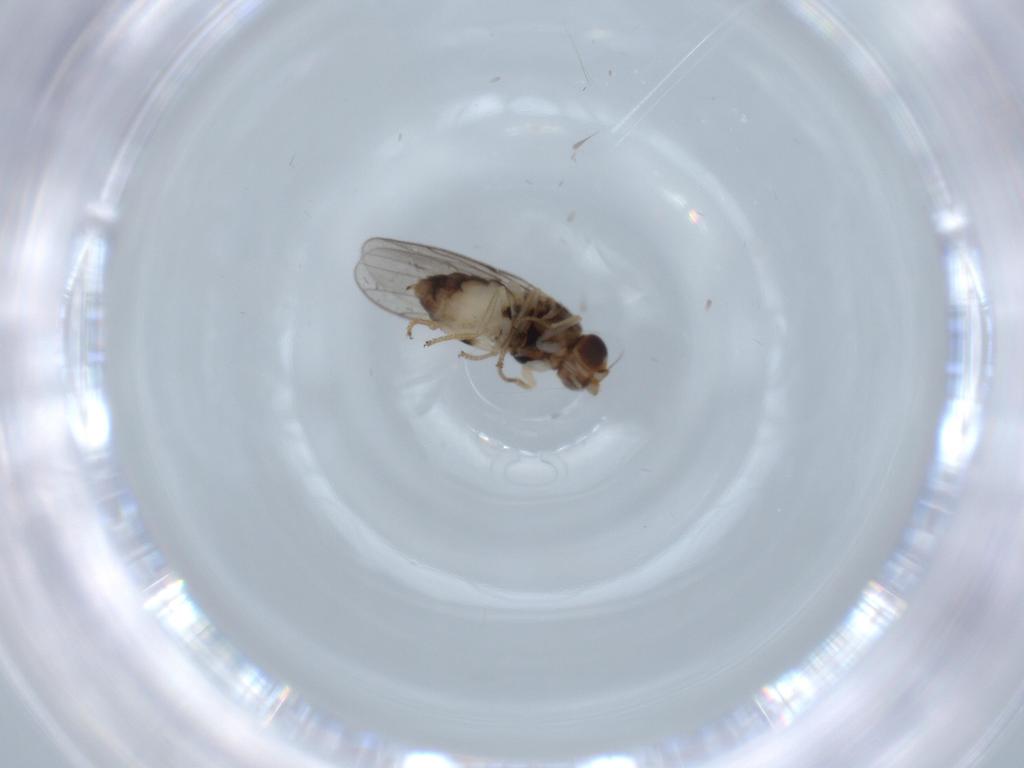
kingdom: Animalia
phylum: Arthropoda
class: Insecta
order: Diptera
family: Chloropidae
